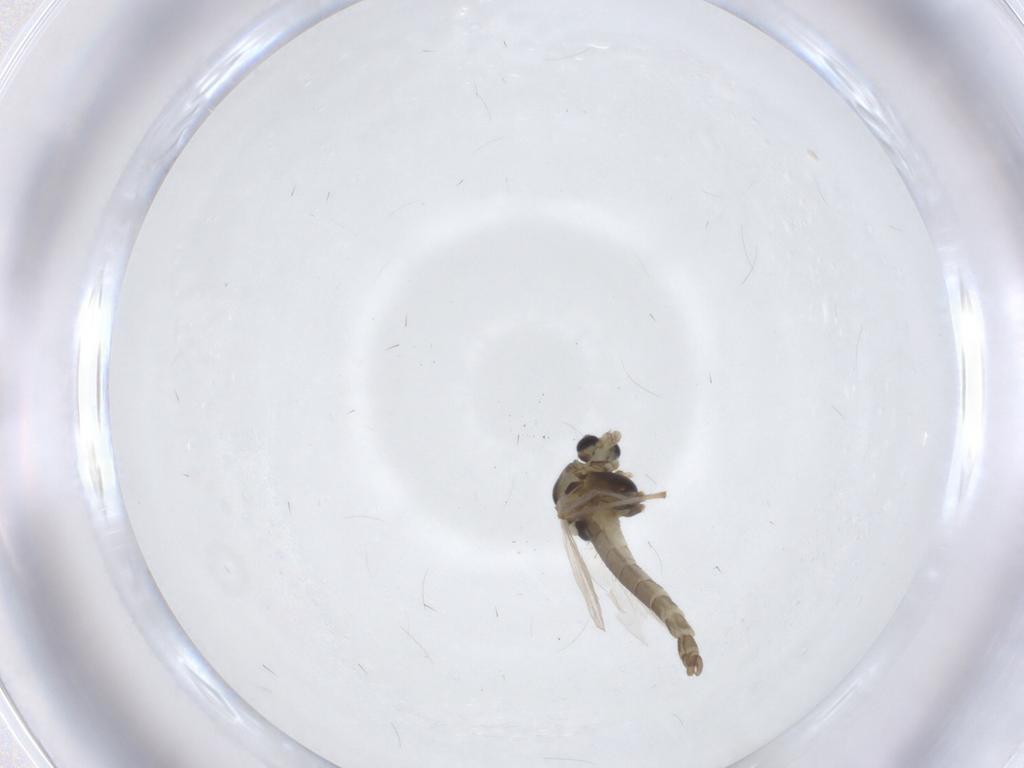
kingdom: Animalia
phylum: Arthropoda
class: Insecta
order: Diptera
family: Chironomidae
